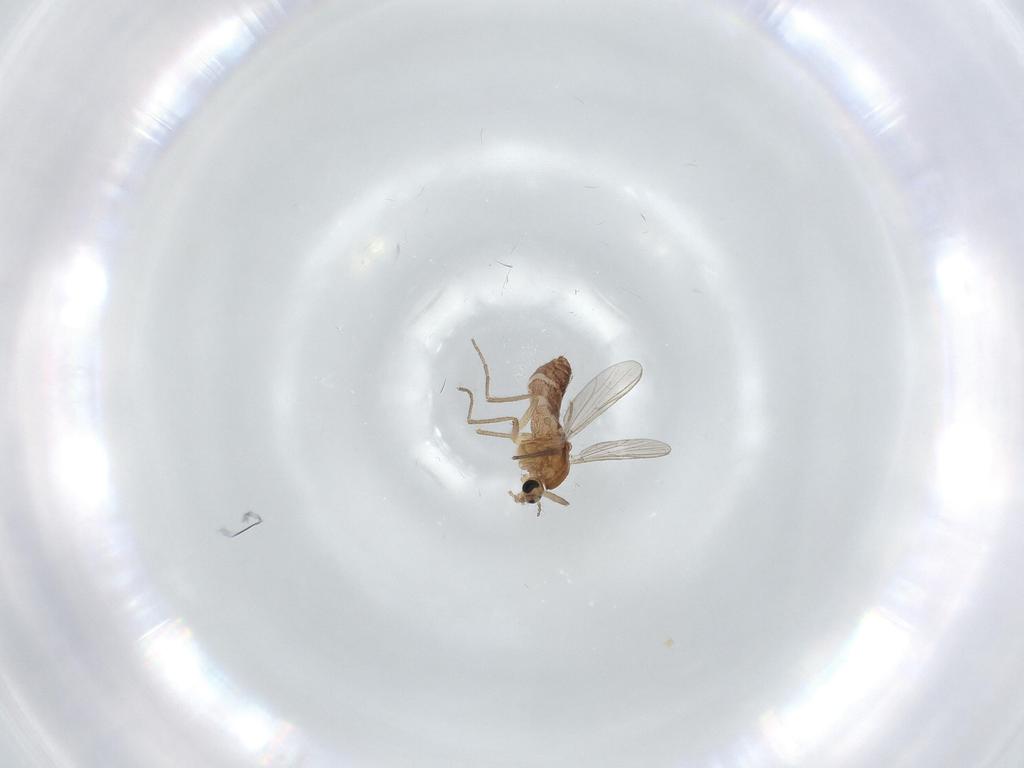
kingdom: Animalia
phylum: Arthropoda
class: Insecta
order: Diptera
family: Chironomidae
